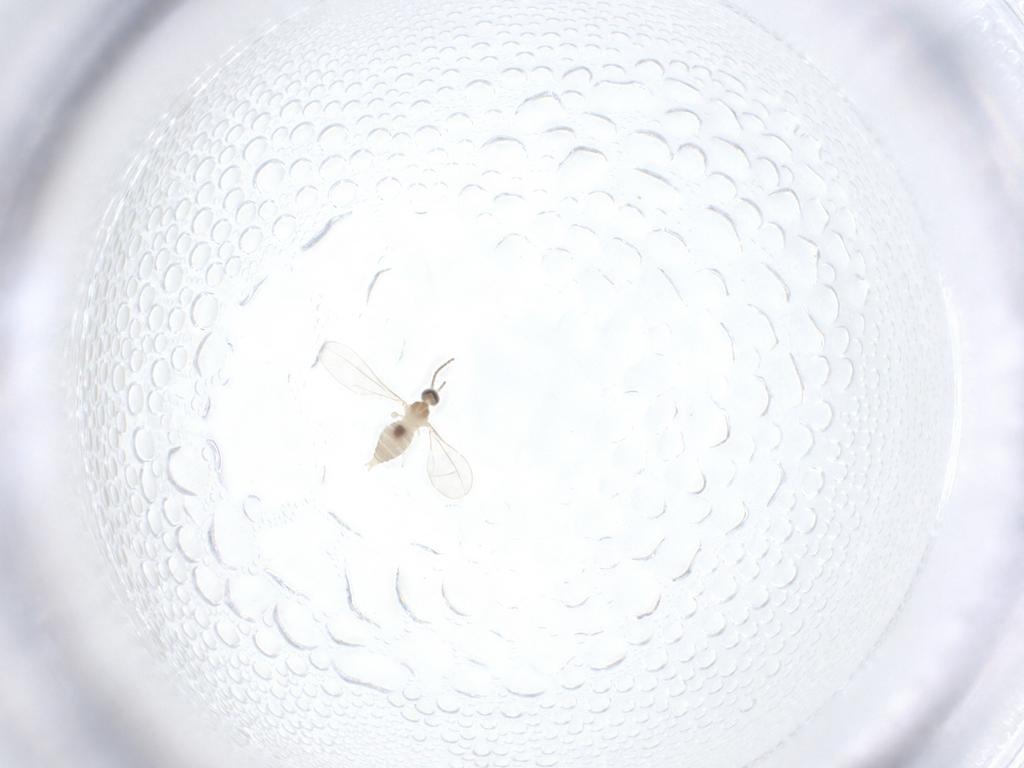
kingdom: Animalia
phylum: Arthropoda
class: Insecta
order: Diptera
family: Cecidomyiidae
